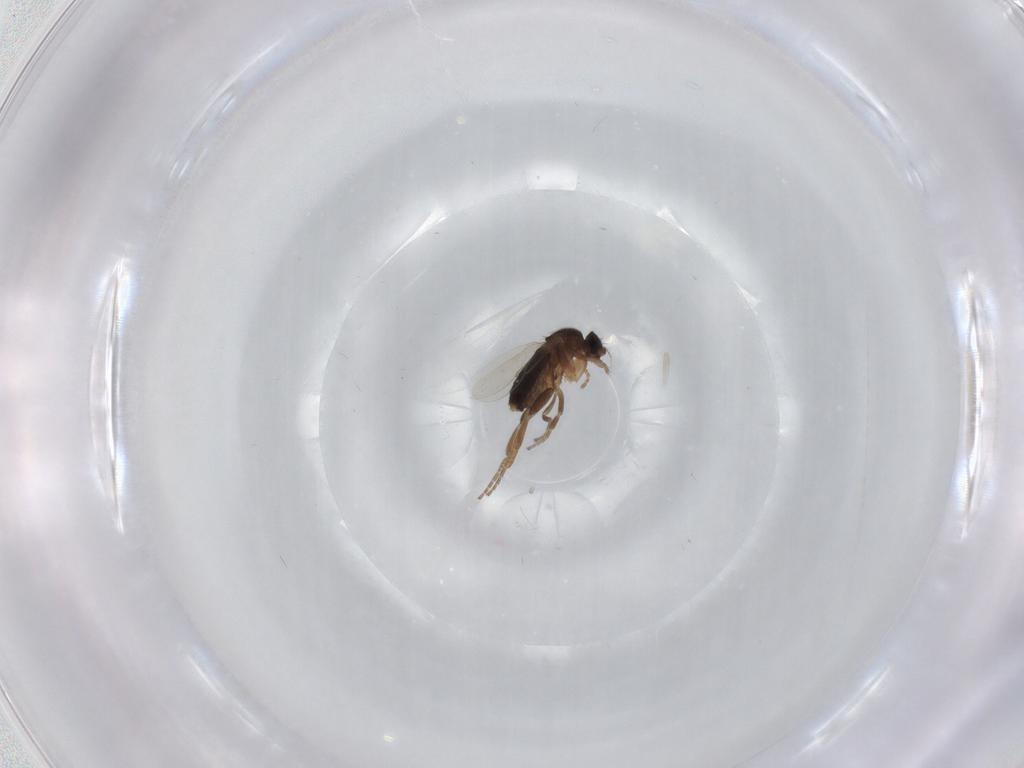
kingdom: Animalia
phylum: Arthropoda
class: Insecta
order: Diptera
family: Phoridae
